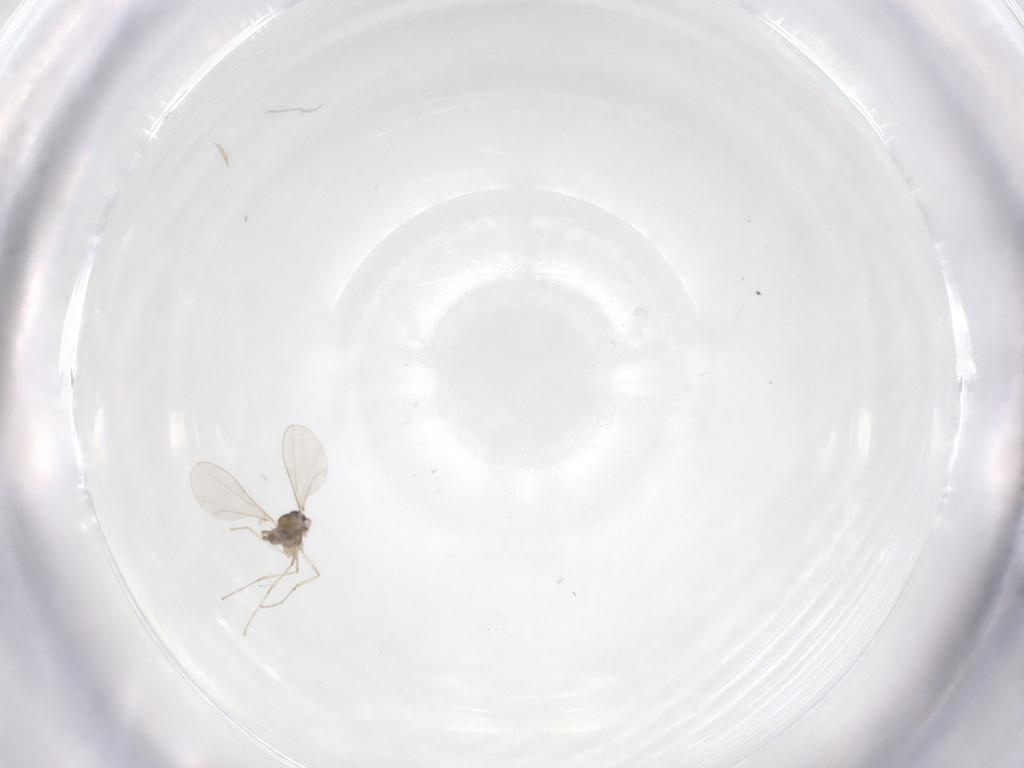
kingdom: Animalia
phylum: Arthropoda
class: Insecta
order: Diptera
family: Cecidomyiidae
